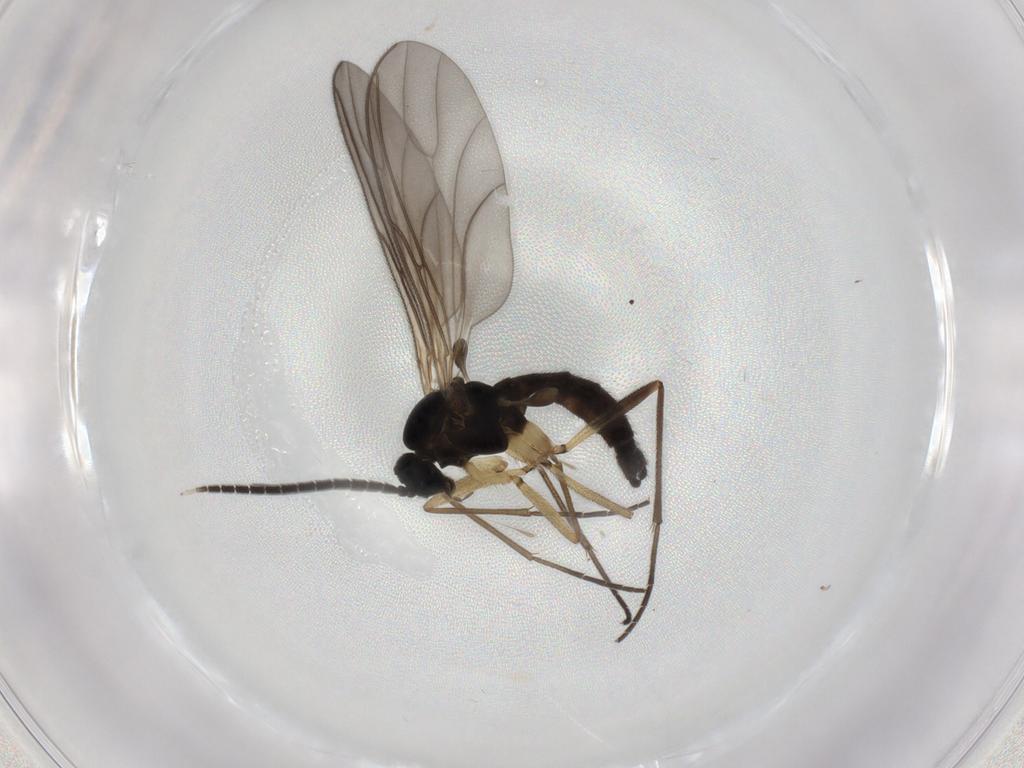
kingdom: Animalia
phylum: Arthropoda
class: Insecta
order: Diptera
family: Sciaridae
